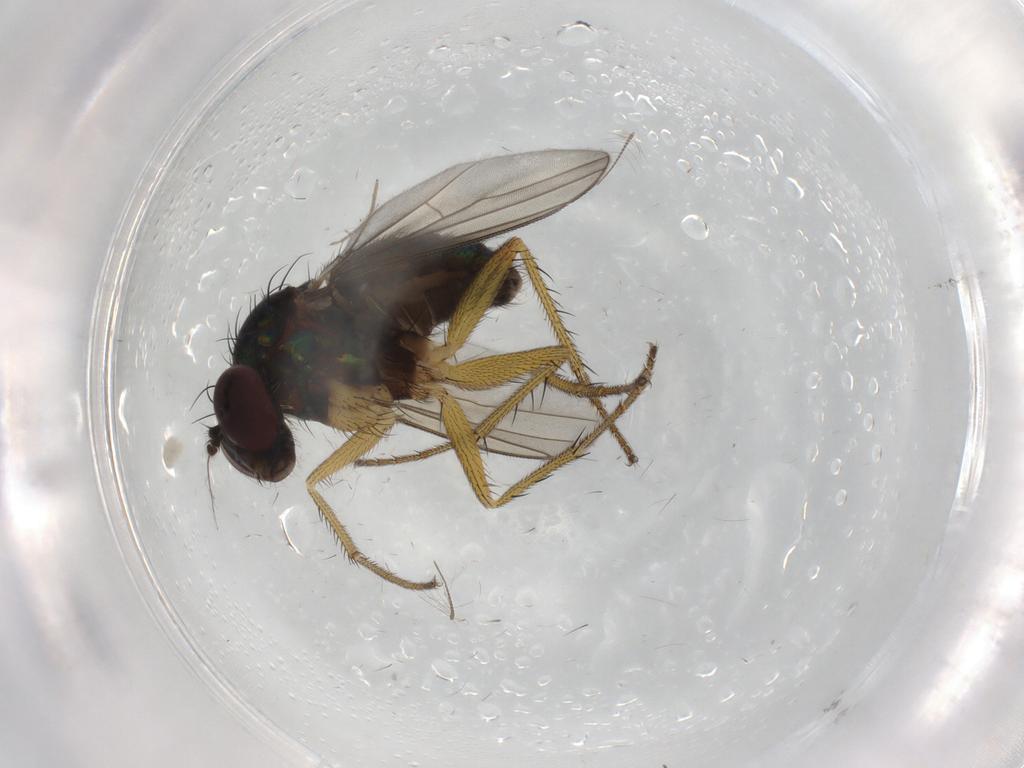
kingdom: Animalia
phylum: Arthropoda
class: Insecta
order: Diptera
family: Dolichopodidae
